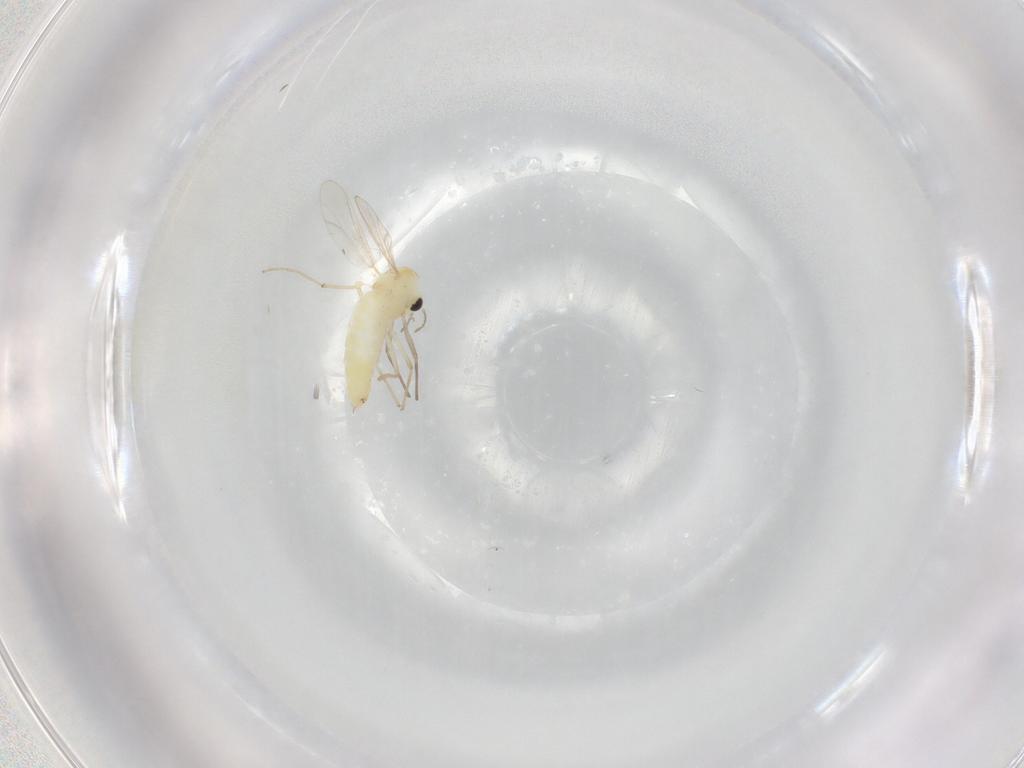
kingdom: Animalia
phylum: Arthropoda
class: Insecta
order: Diptera
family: Chironomidae
